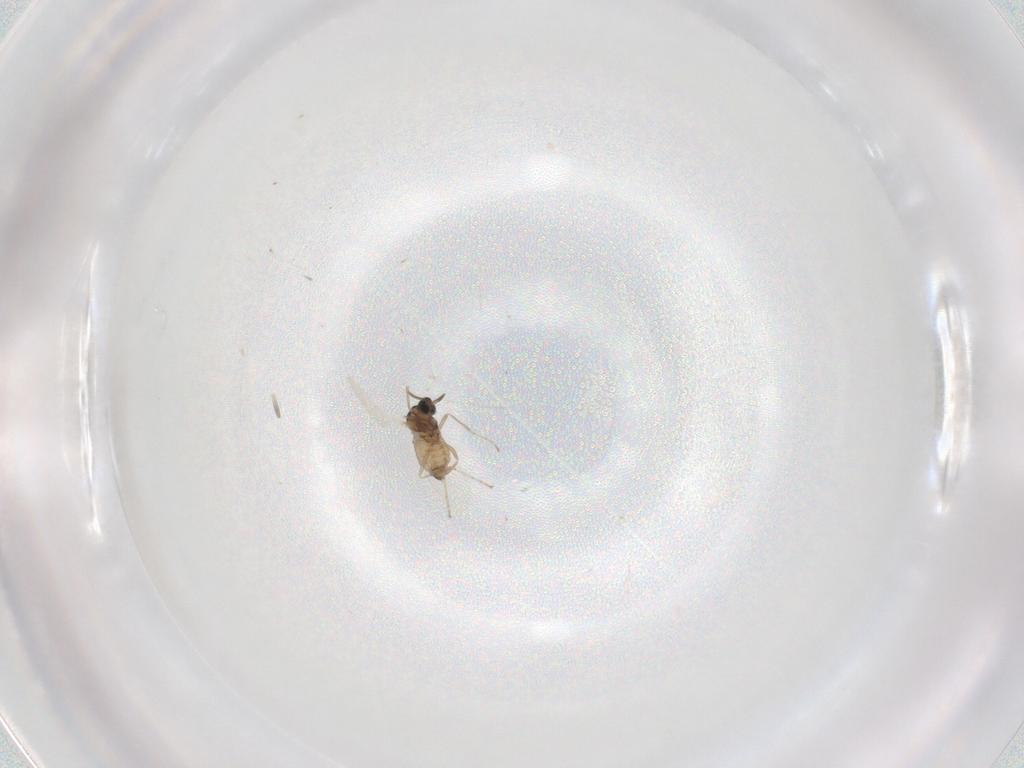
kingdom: Animalia
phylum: Arthropoda
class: Insecta
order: Diptera
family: Cecidomyiidae
